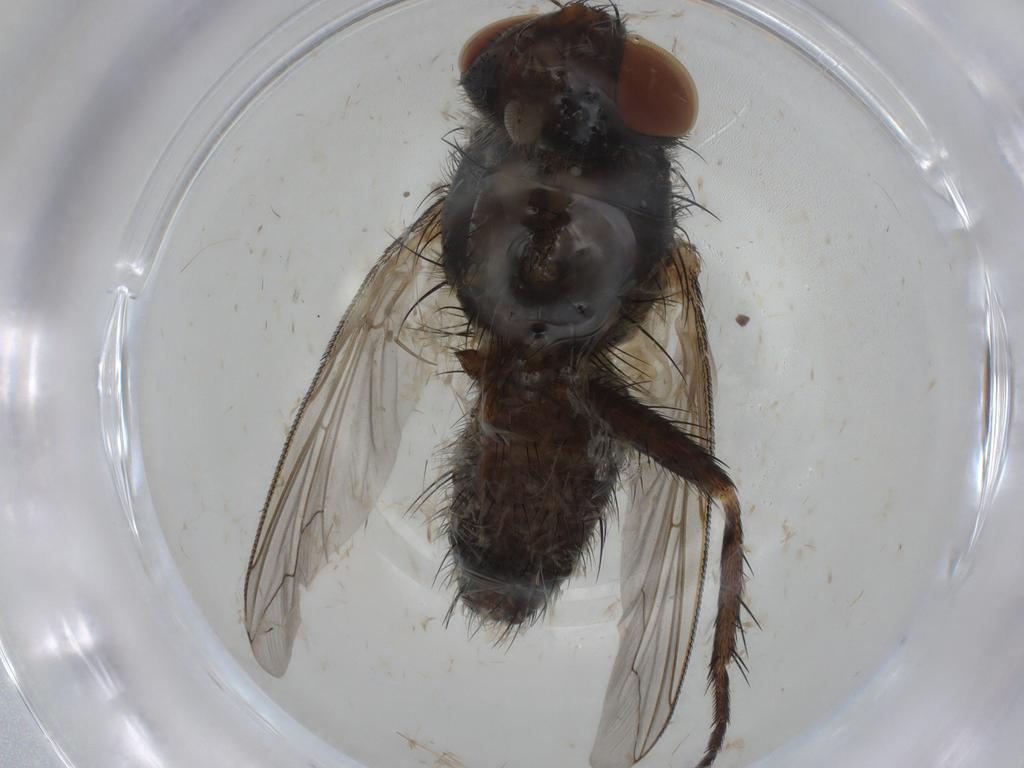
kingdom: Animalia
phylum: Arthropoda
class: Insecta
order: Diptera
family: Sarcophagidae
